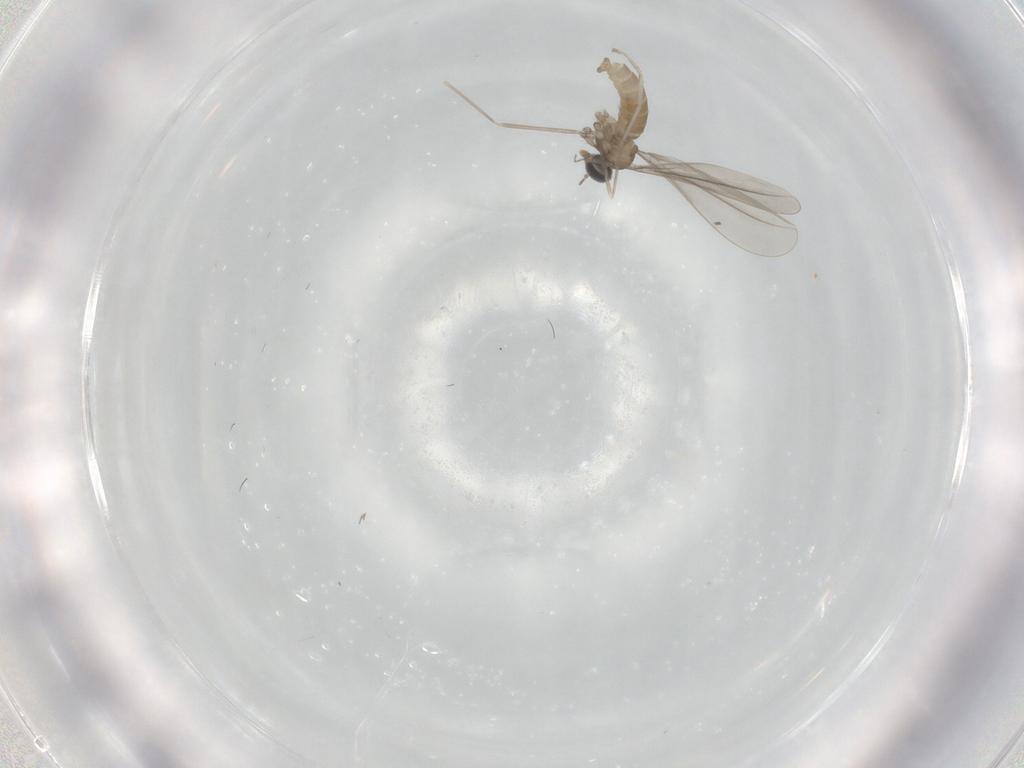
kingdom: Animalia
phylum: Arthropoda
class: Insecta
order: Diptera
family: Cecidomyiidae
